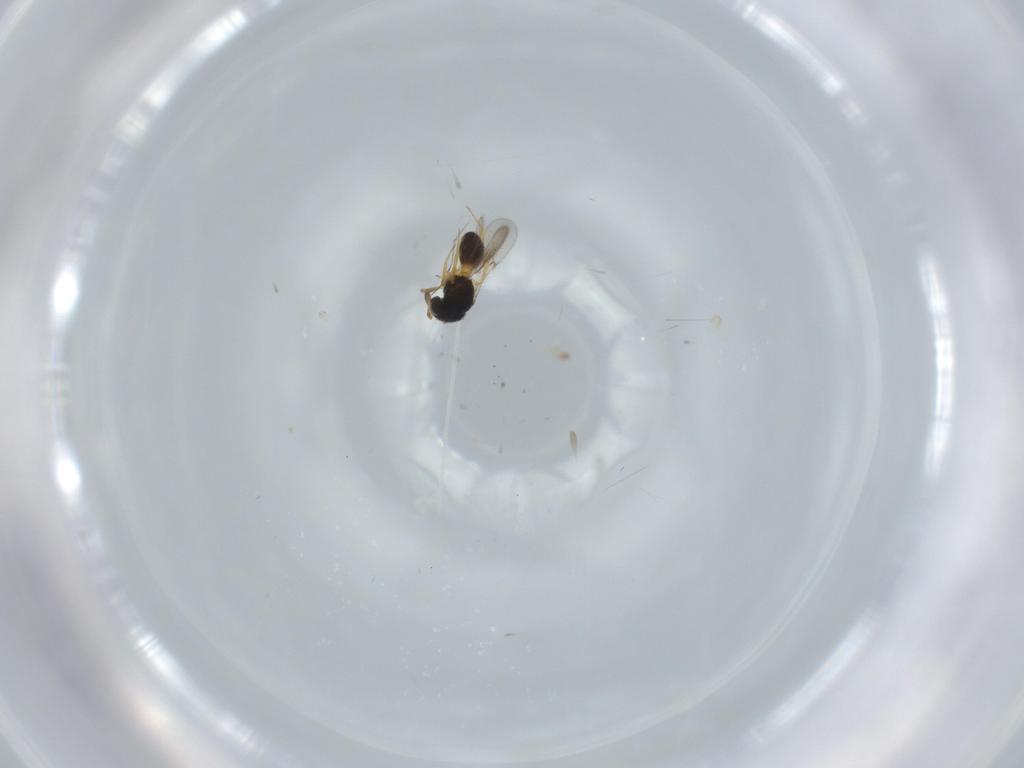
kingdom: Animalia
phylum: Arthropoda
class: Insecta
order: Hymenoptera
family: Scelionidae
